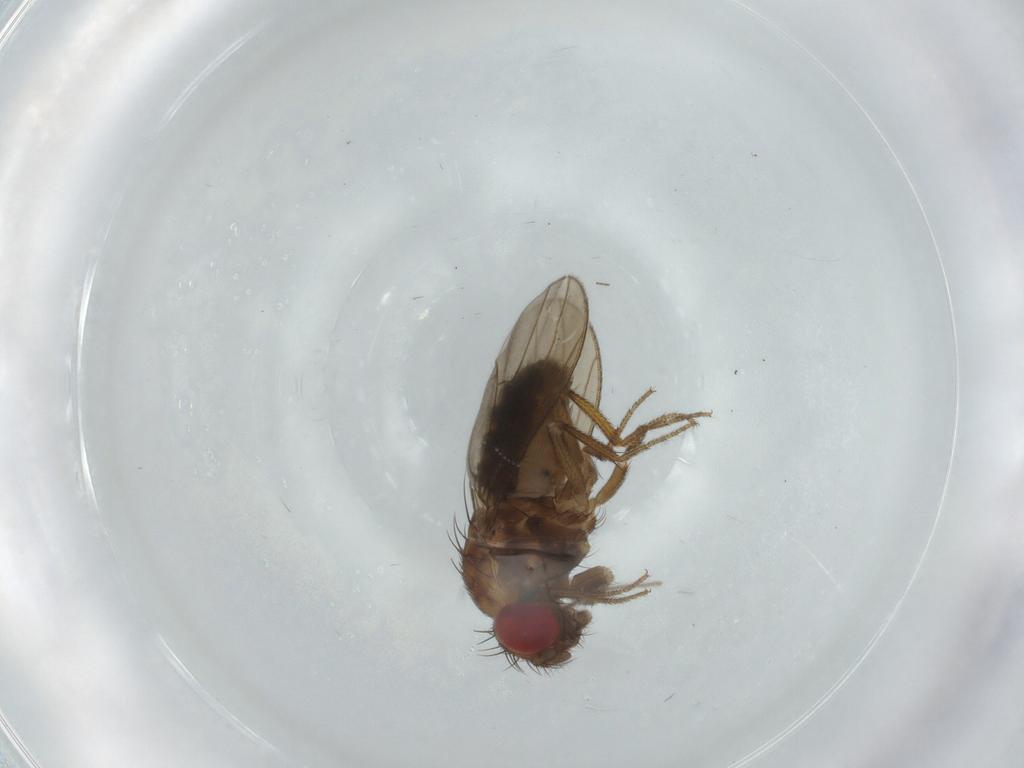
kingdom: Animalia
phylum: Arthropoda
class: Insecta
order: Diptera
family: Drosophilidae
